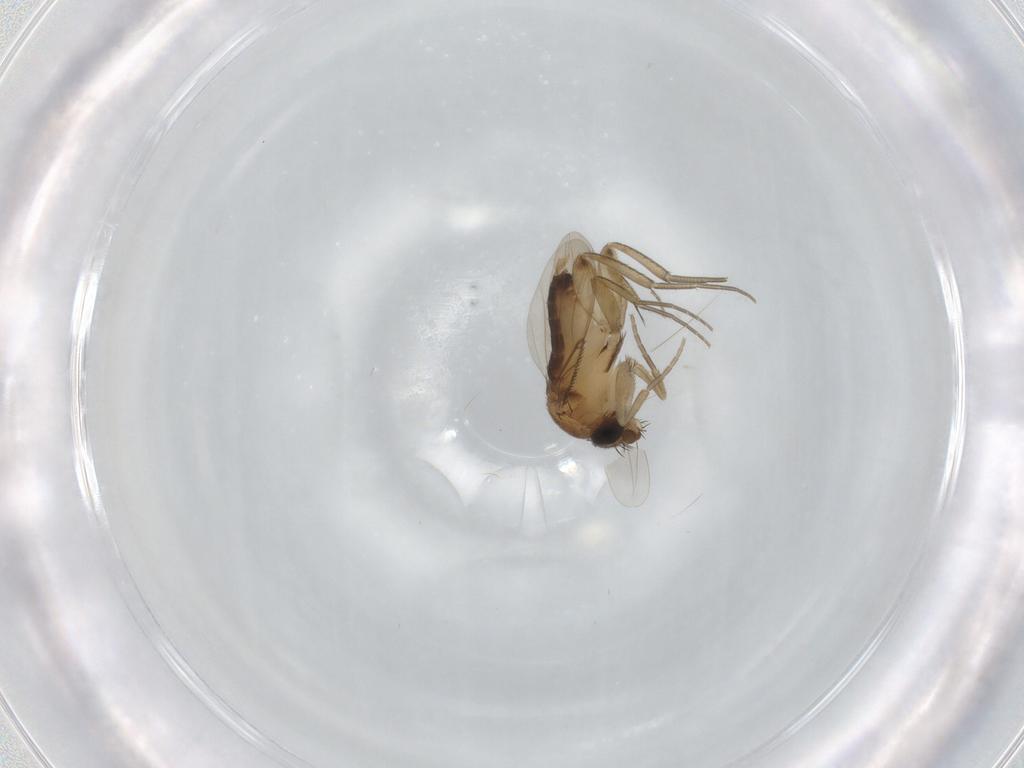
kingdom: Animalia
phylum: Arthropoda
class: Insecta
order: Diptera
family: Phoridae
